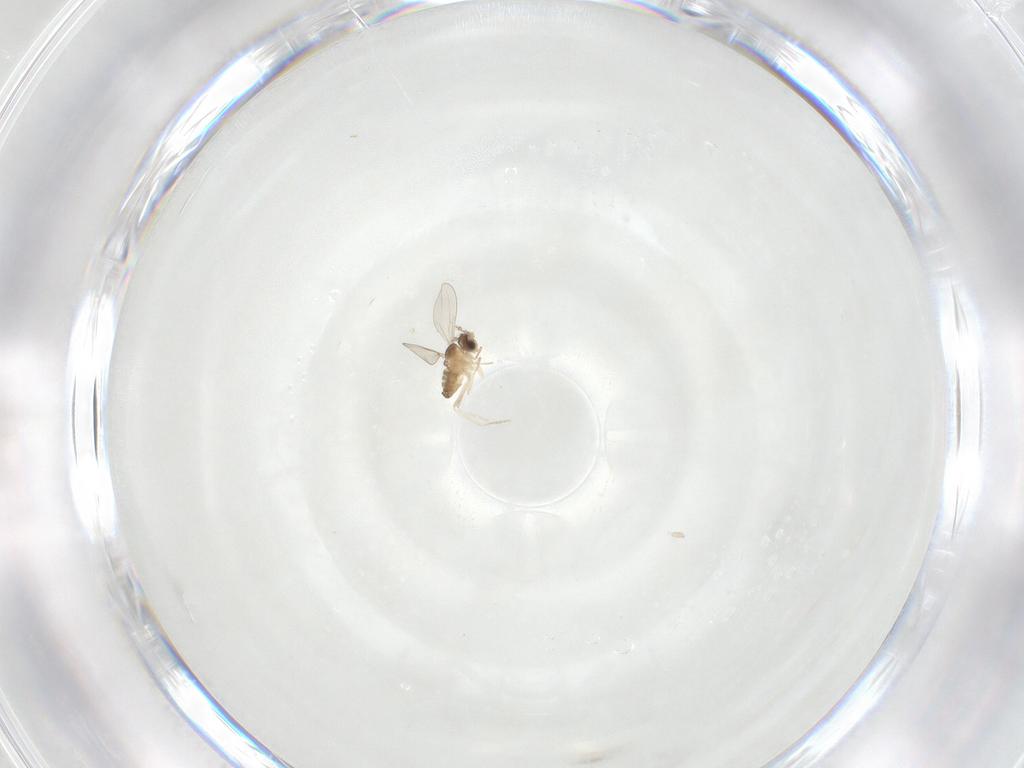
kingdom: Animalia
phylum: Arthropoda
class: Insecta
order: Diptera
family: Cecidomyiidae
